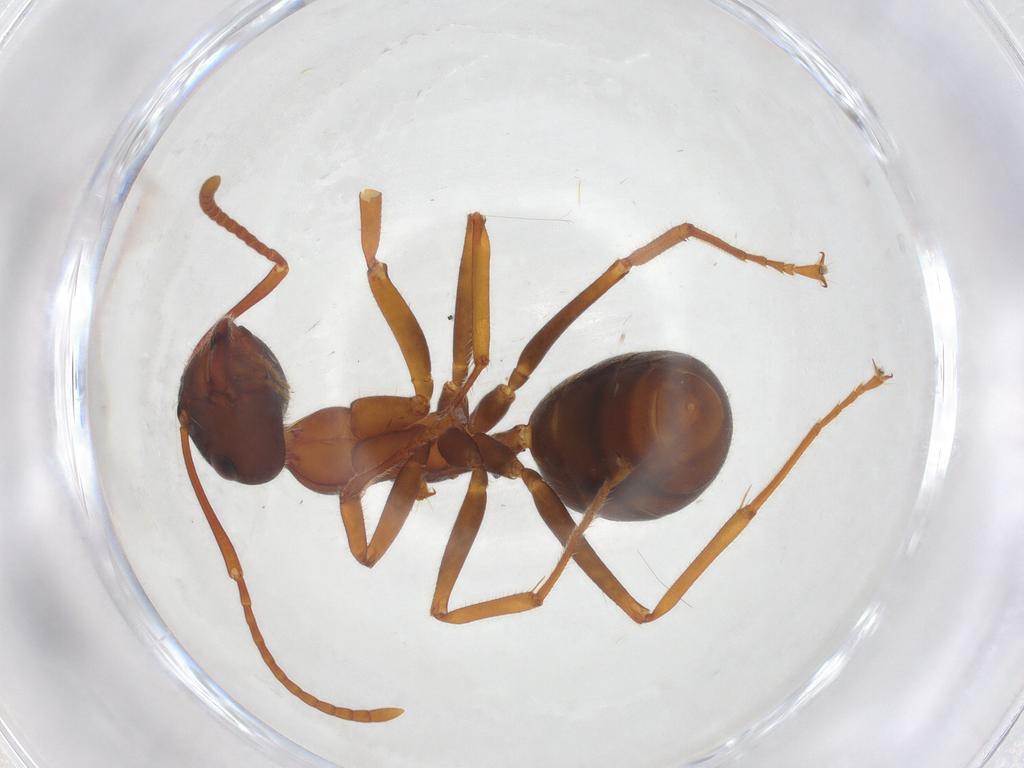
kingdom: Animalia
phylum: Arthropoda
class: Insecta
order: Hymenoptera
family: Formicidae
